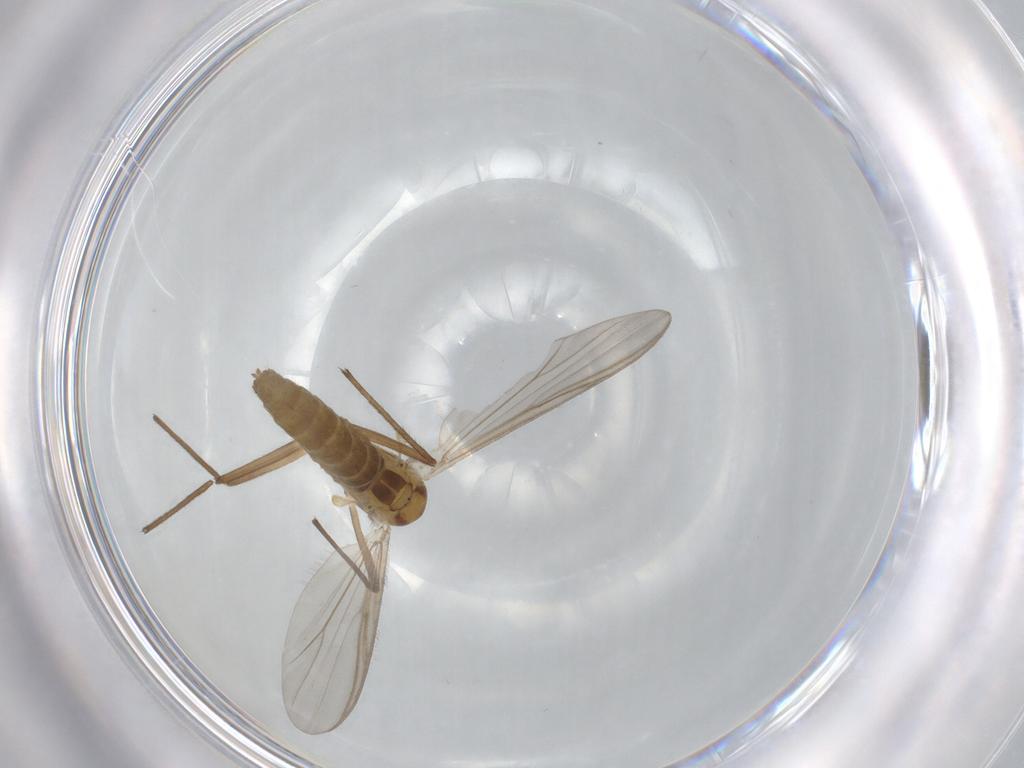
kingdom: Animalia
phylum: Arthropoda
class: Insecta
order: Diptera
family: Chironomidae
